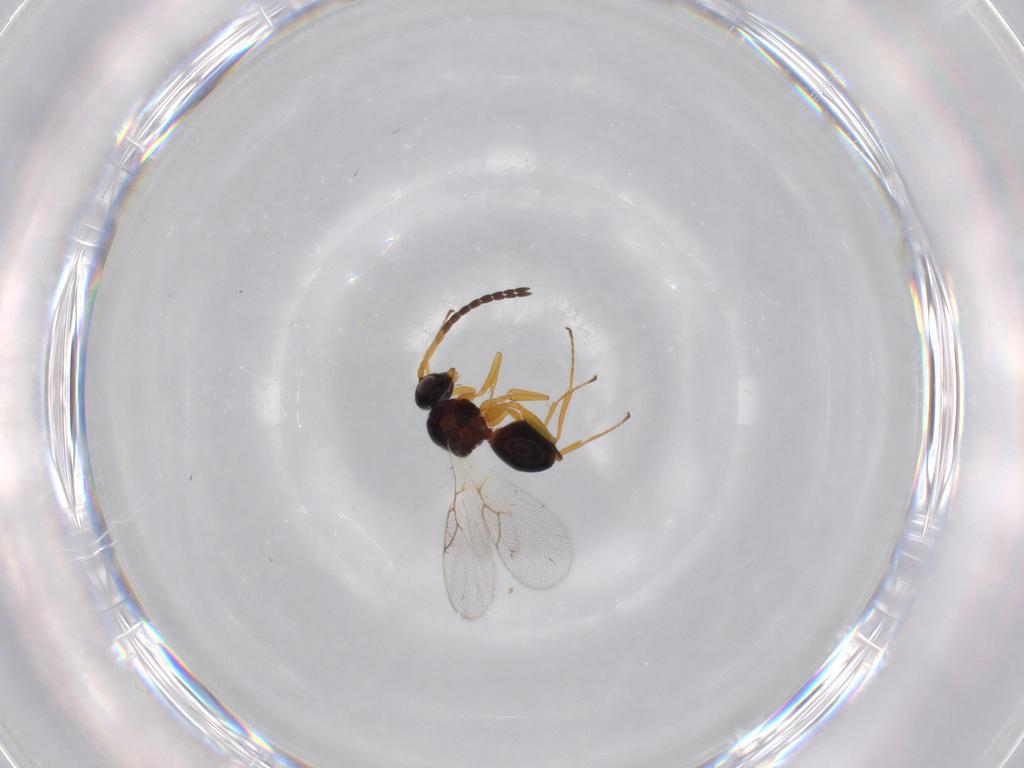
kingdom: Animalia
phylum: Arthropoda
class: Insecta
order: Hymenoptera
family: Figitidae
